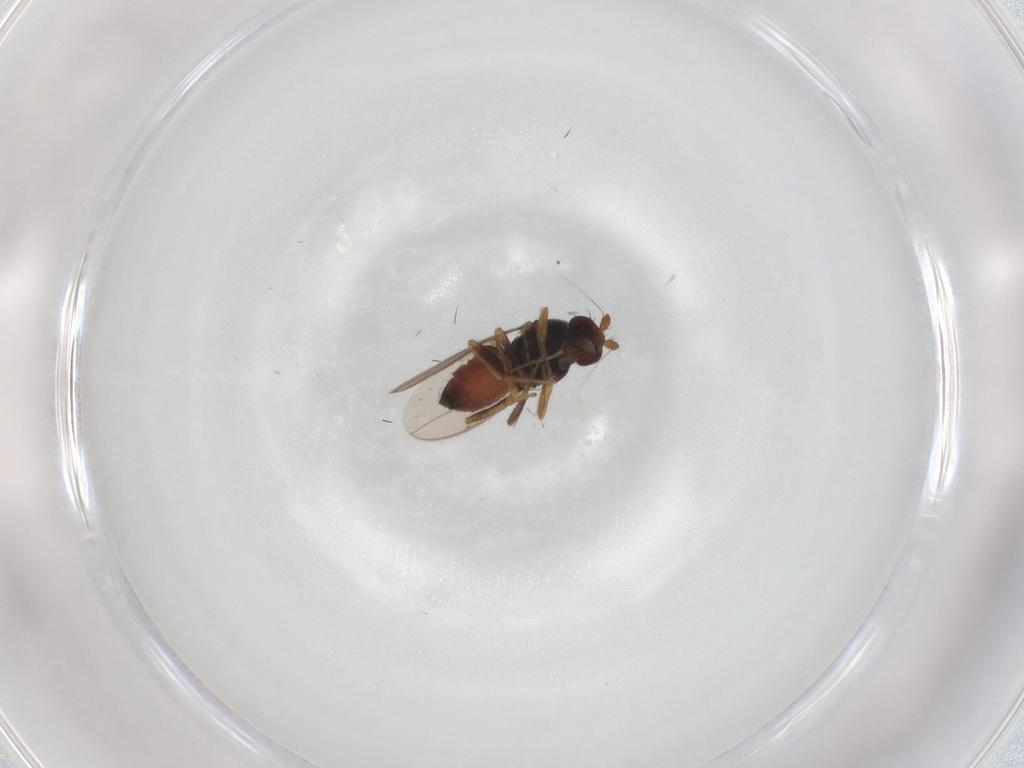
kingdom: Animalia
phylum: Arthropoda
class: Insecta
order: Diptera
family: Sphaeroceridae
